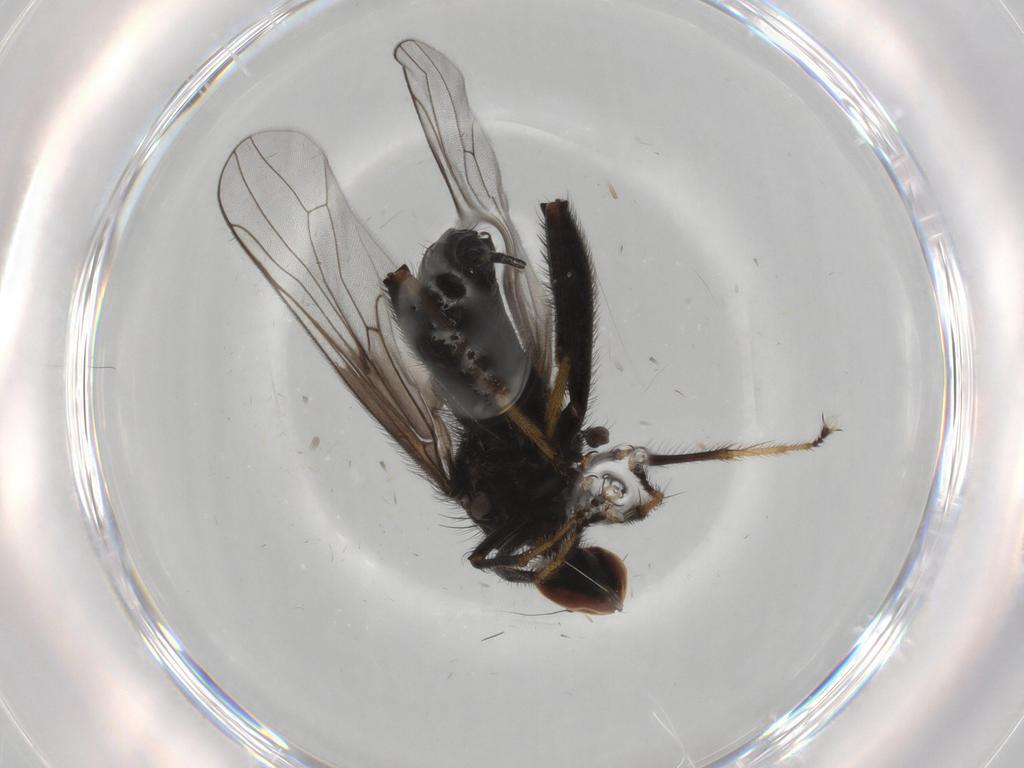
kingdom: Animalia
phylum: Arthropoda
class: Insecta
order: Diptera
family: Hybotidae
